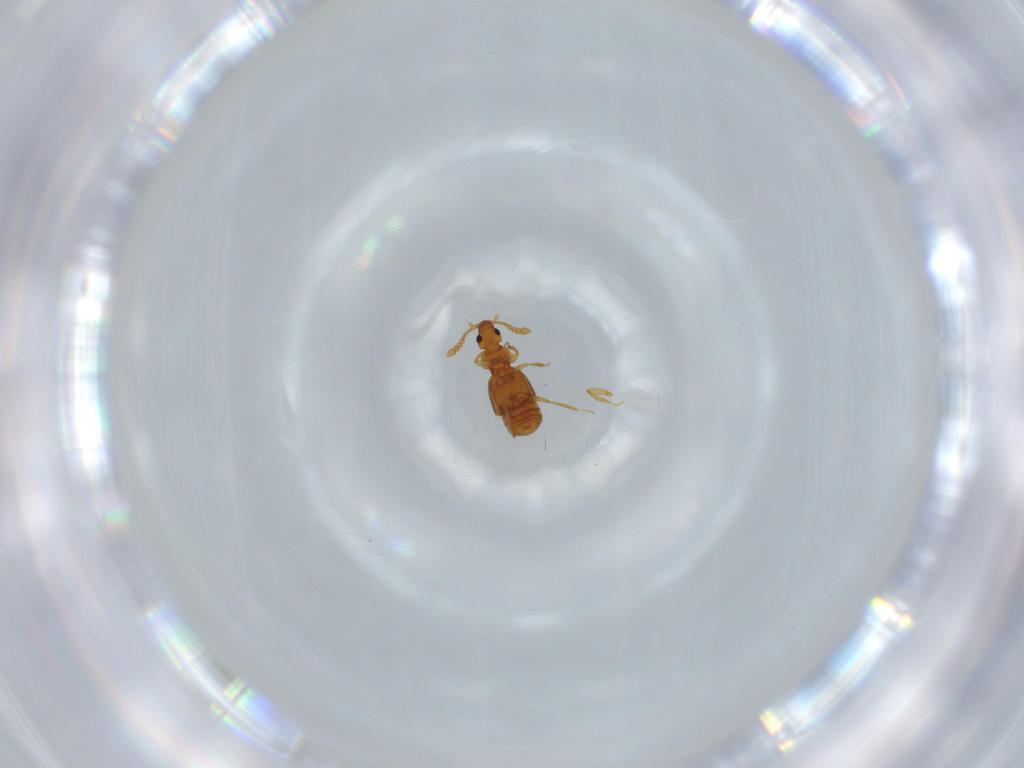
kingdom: Animalia
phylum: Arthropoda
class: Insecta
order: Coleoptera
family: Staphylinidae
